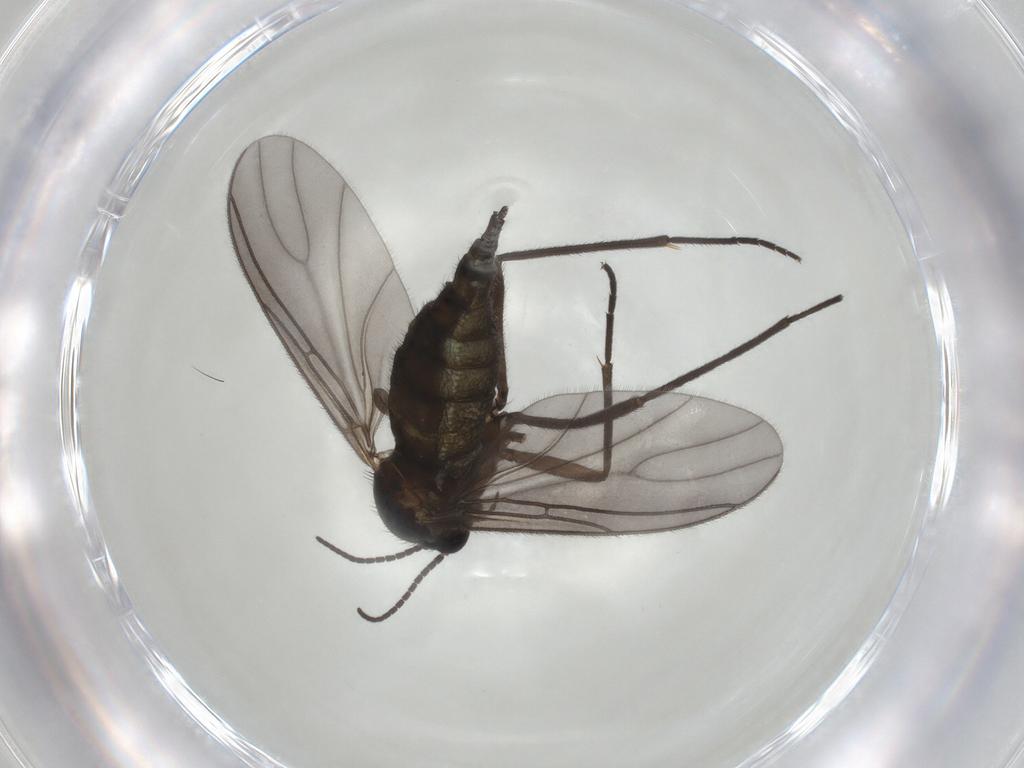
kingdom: Animalia
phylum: Arthropoda
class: Insecta
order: Diptera
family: Sciaridae
